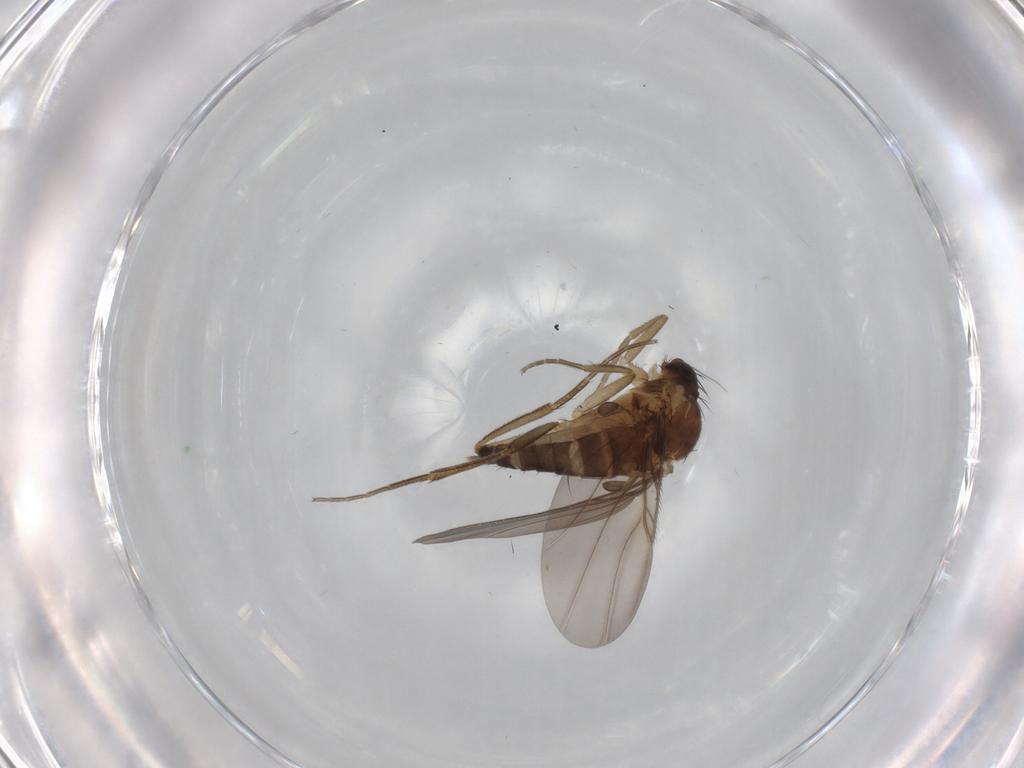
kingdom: Animalia
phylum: Arthropoda
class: Insecta
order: Diptera
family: Phoridae
